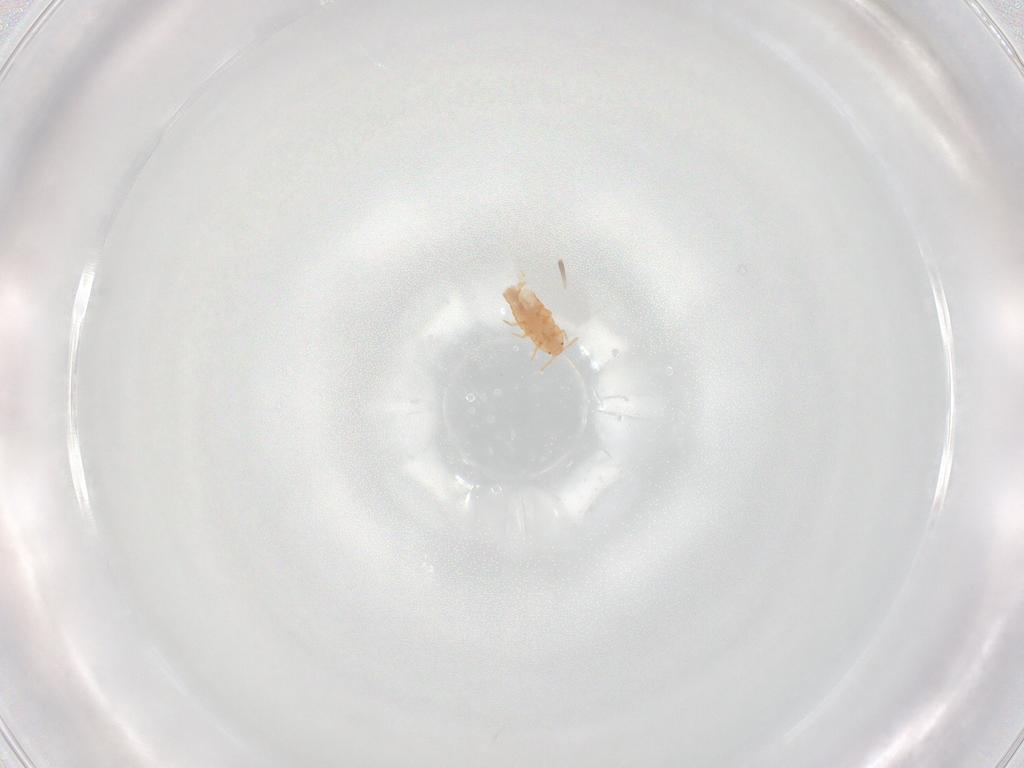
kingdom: Animalia
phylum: Arthropoda
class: Insecta
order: Hemiptera
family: Coccoidea_incertae_sedis
